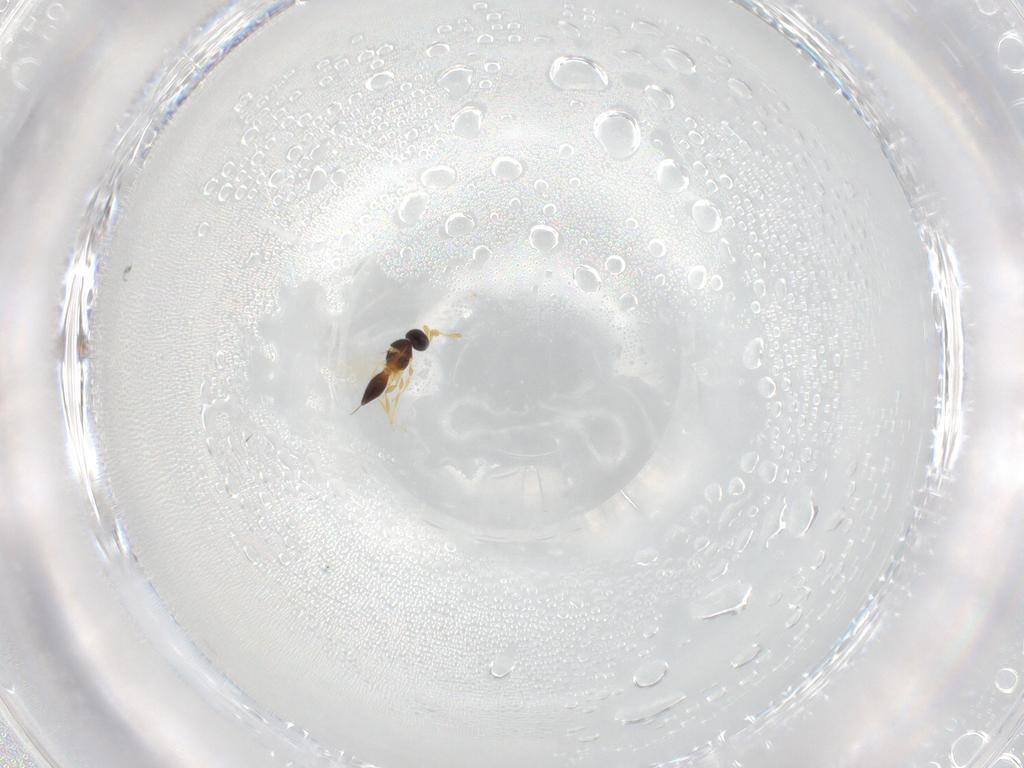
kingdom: Animalia
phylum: Arthropoda
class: Insecta
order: Hymenoptera
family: Platygastridae
